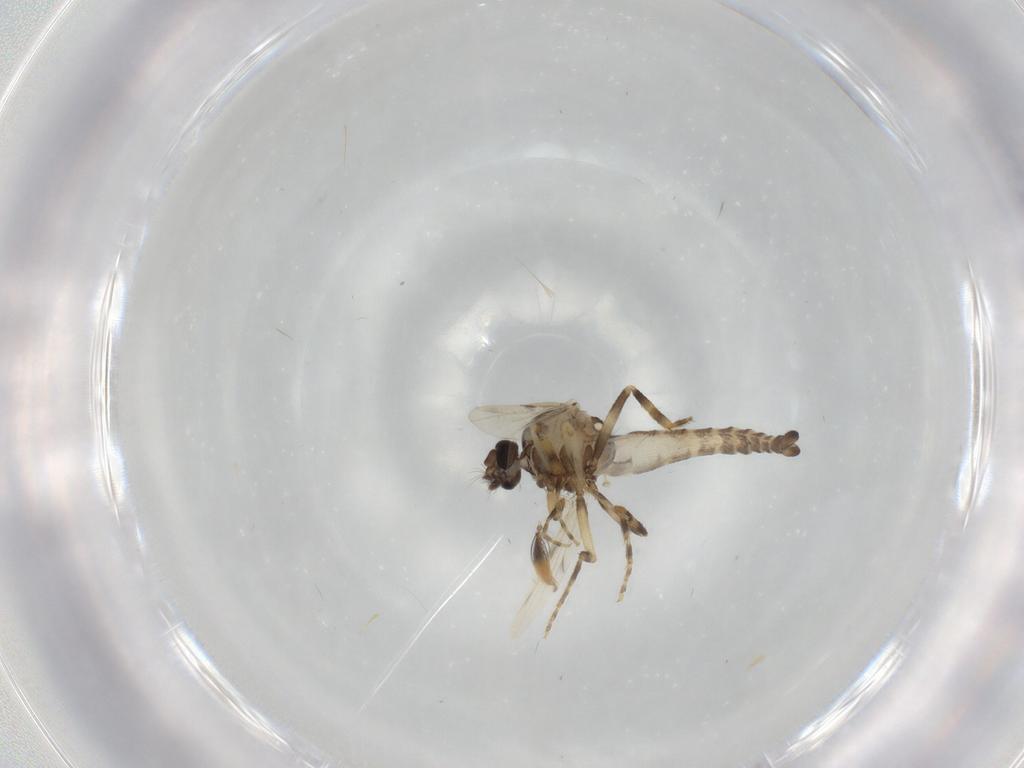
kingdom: Animalia
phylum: Arthropoda
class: Insecta
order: Diptera
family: Ceratopogonidae
